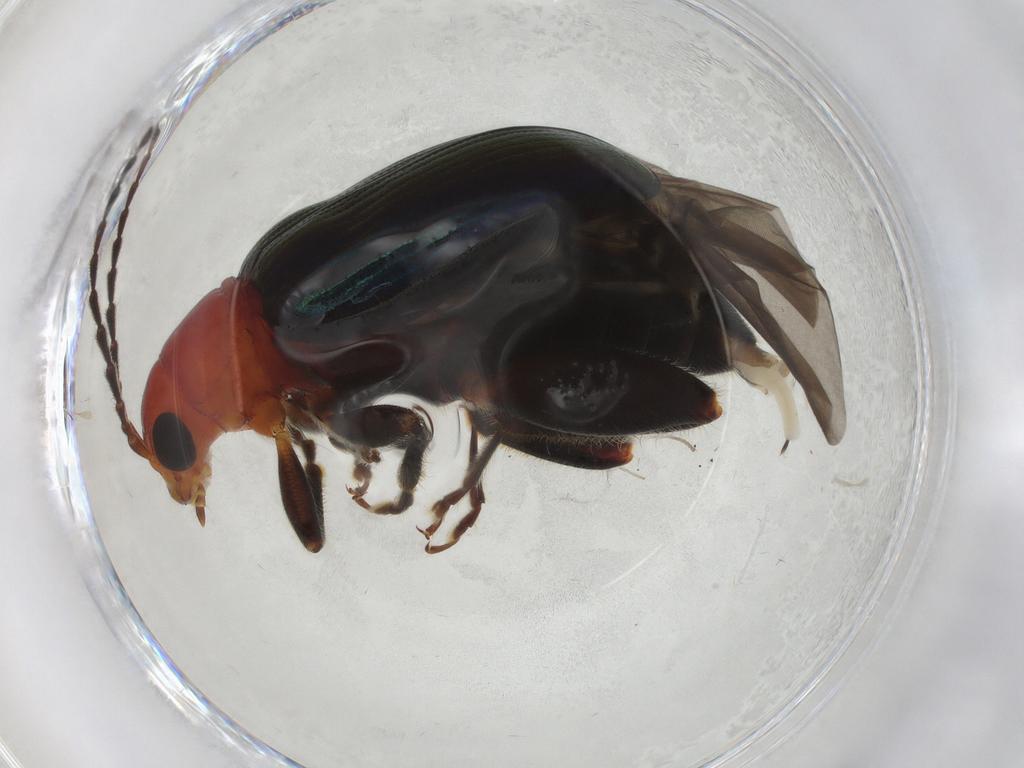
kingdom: Animalia
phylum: Arthropoda
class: Insecta
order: Coleoptera
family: Chrysomelidae
